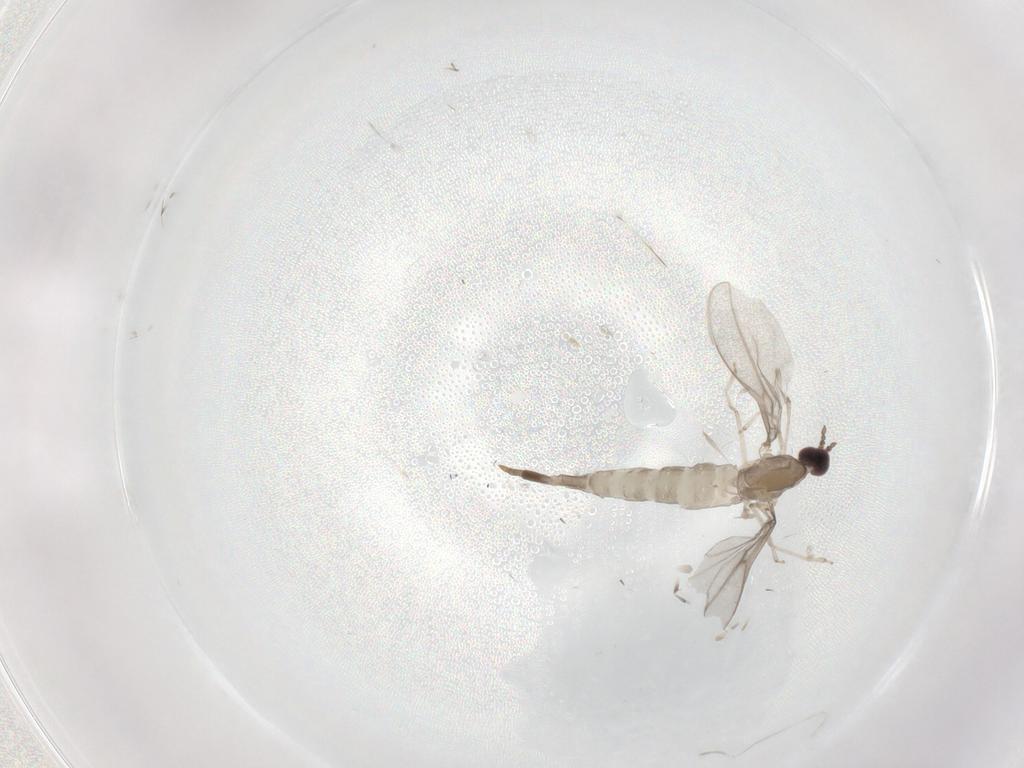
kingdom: Animalia
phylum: Arthropoda
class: Insecta
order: Diptera
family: Cecidomyiidae
